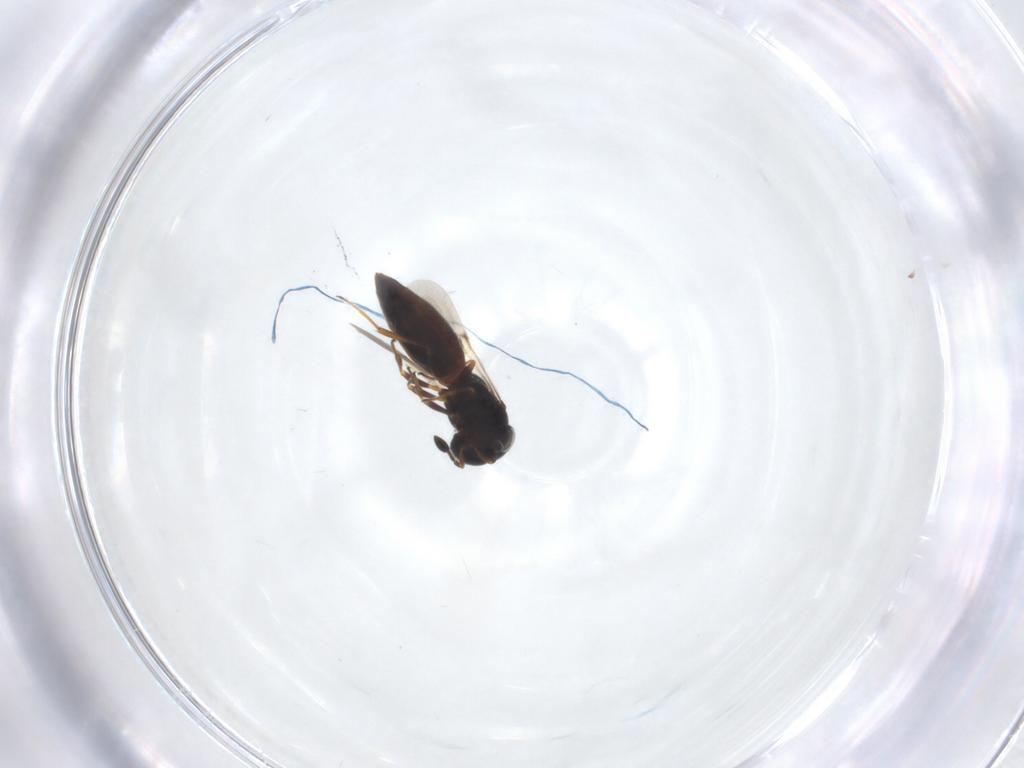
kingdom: Animalia
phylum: Arthropoda
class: Insecta
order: Hymenoptera
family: Scelionidae
